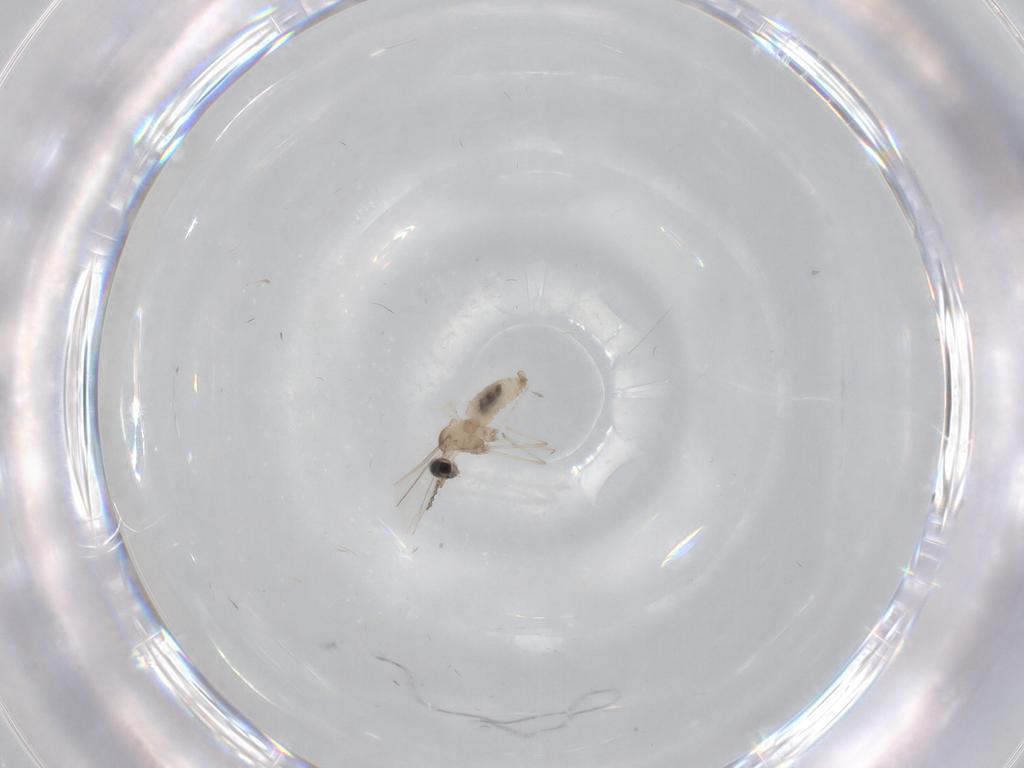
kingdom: Animalia
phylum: Arthropoda
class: Insecta
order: Diptera
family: Cecidomyiidae
